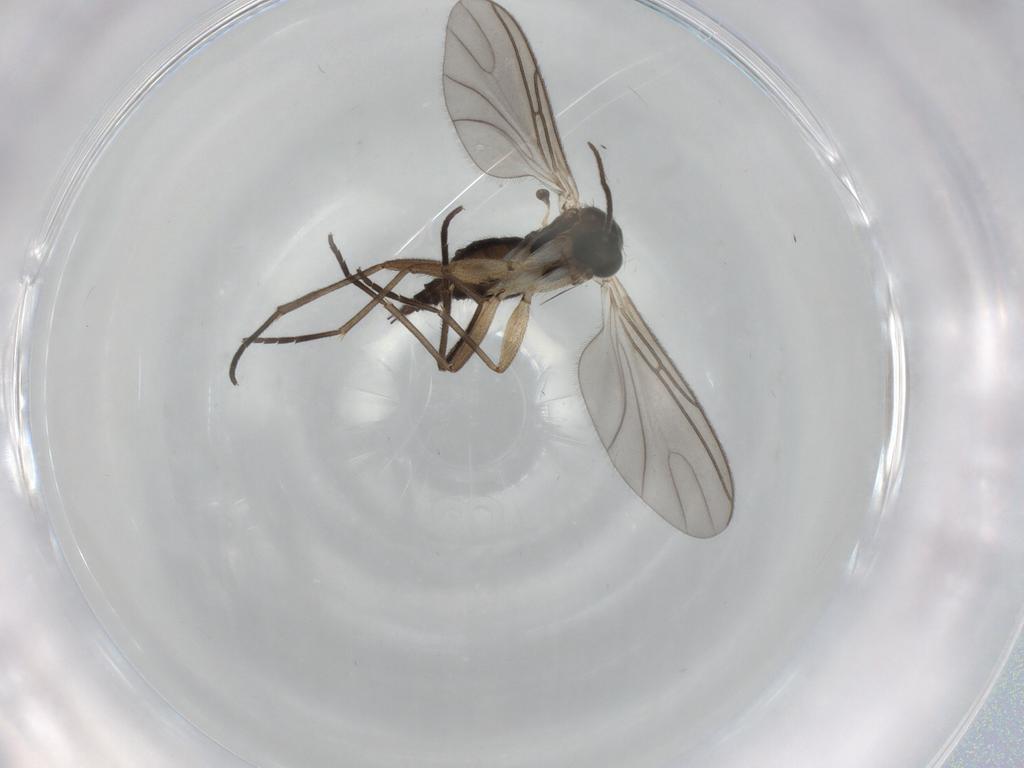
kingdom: Animalia
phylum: Arthropoda
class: Insecta
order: Diptera
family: Sciaridae
